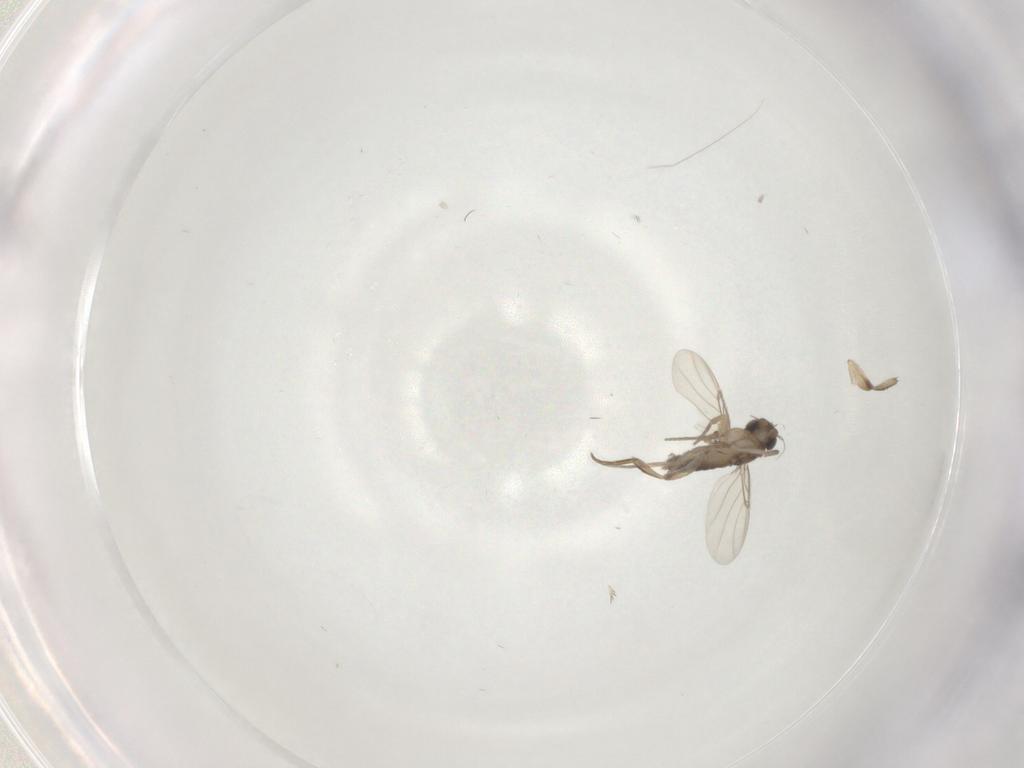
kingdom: Animalia
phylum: Arthropoda
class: Insecta
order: Diptera
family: Phoridae
